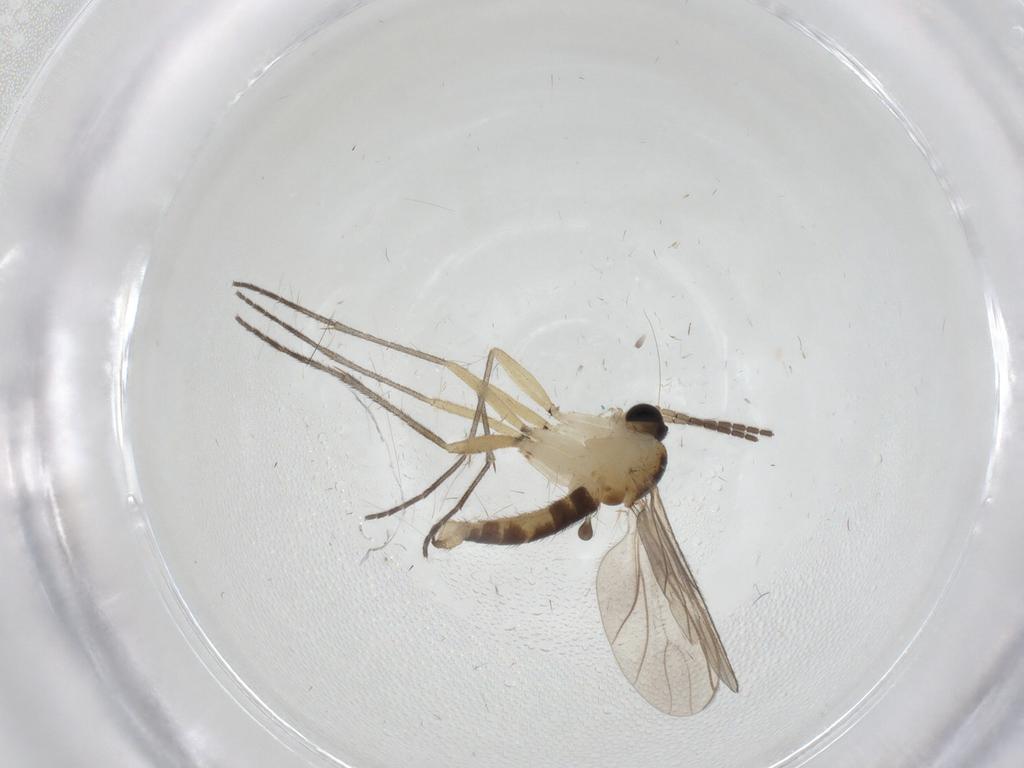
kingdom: Animalia
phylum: Arthropoda
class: Insecta
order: Diptera
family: Sciaridae
